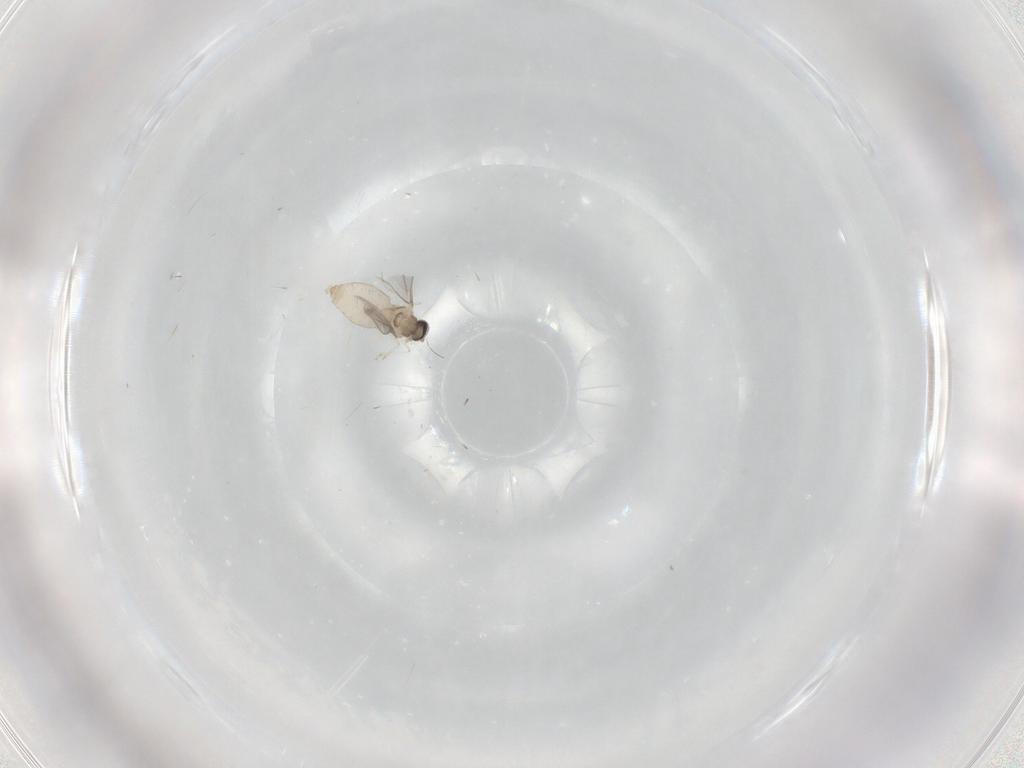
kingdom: Animalia
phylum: Arthropoda
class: Insecta
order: Diptera
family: Cecidomyiidae
